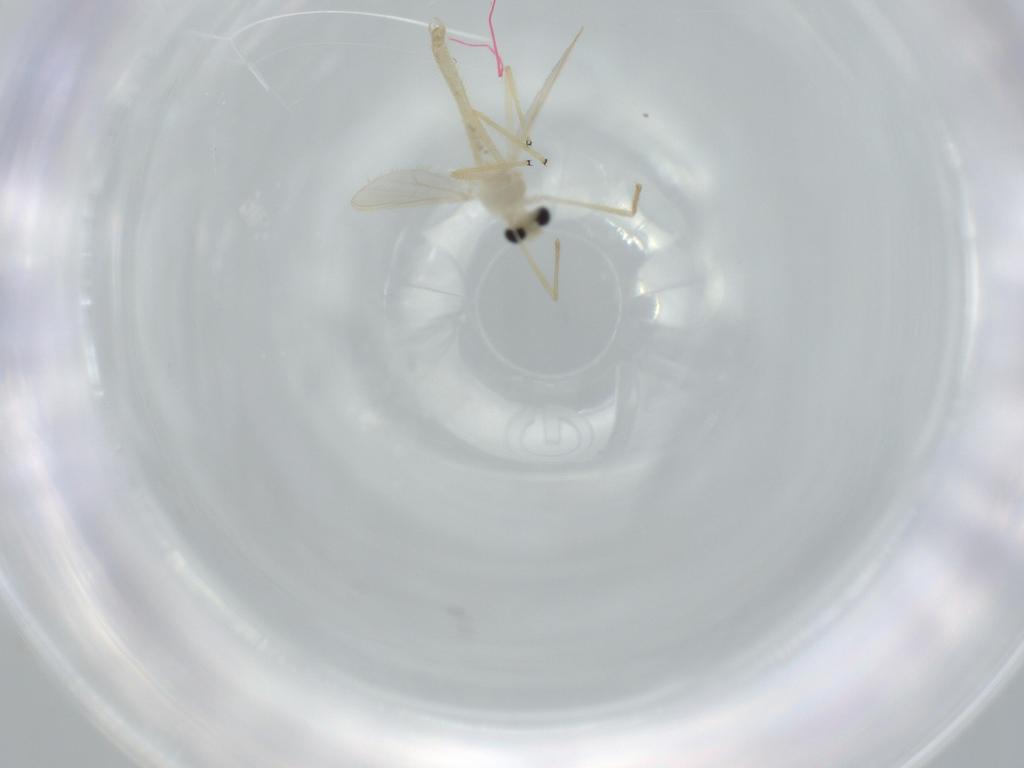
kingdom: Animalia
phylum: Arthropoda
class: Insecta
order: Diptera
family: Chironomidae
